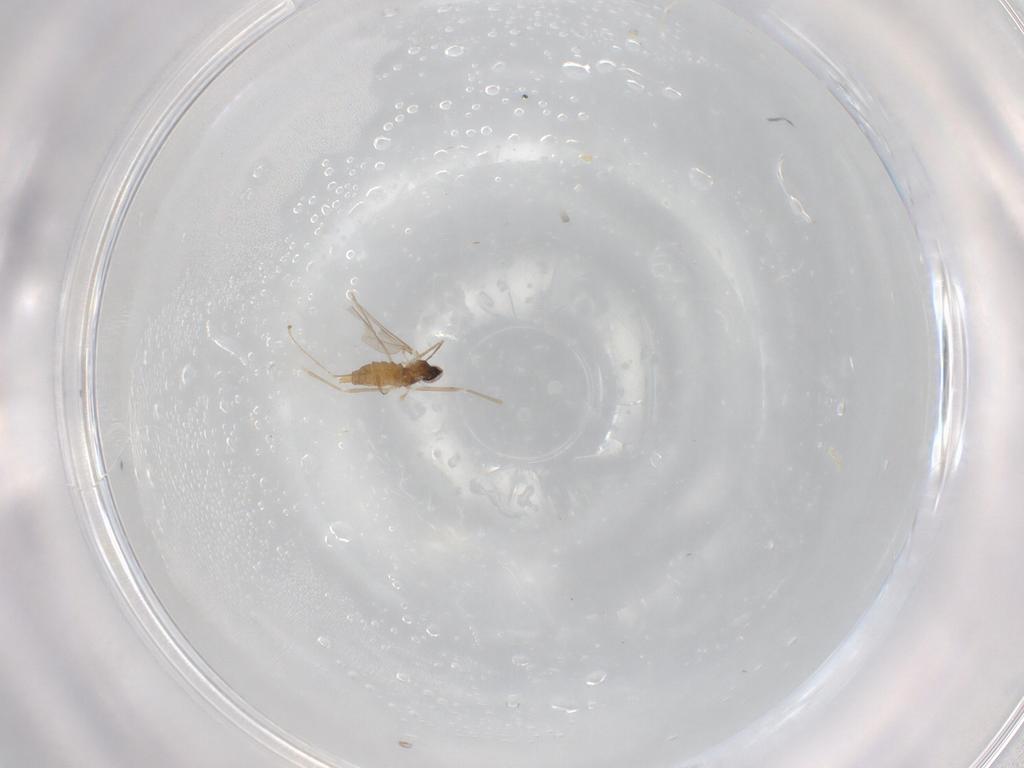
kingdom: Animalia
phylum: Arthropoda
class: Insecta
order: Diptera
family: Cecidomyiidae
